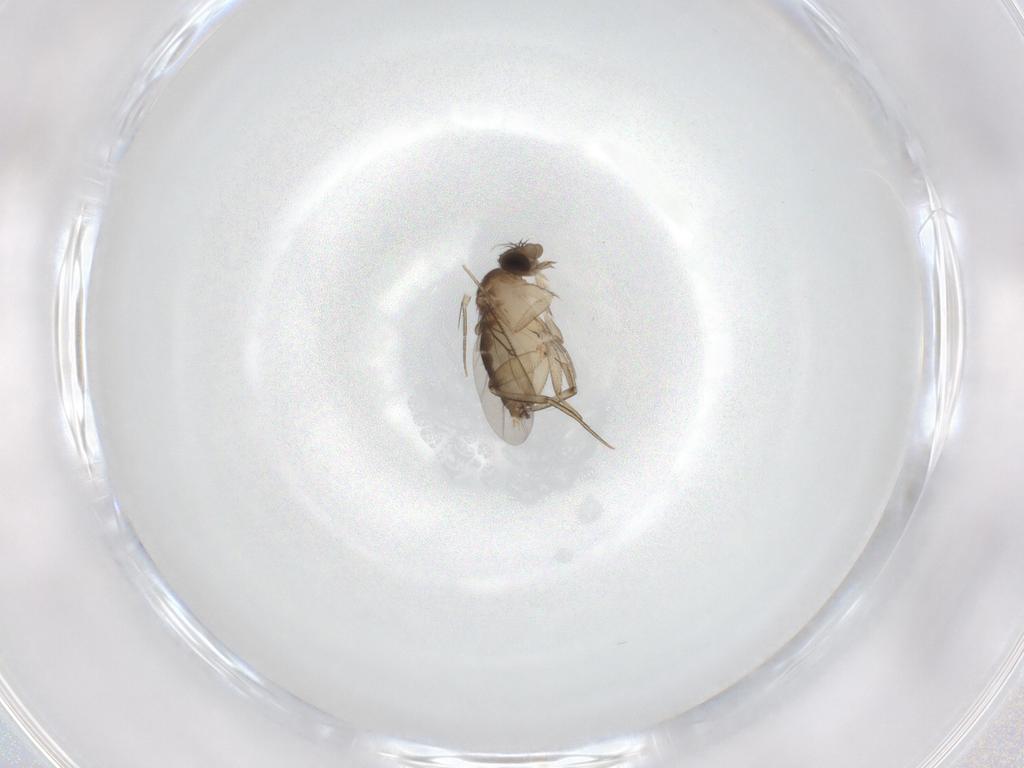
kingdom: Animalia
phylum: Arthropoda
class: Insecta
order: Diptera
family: Phoridae
